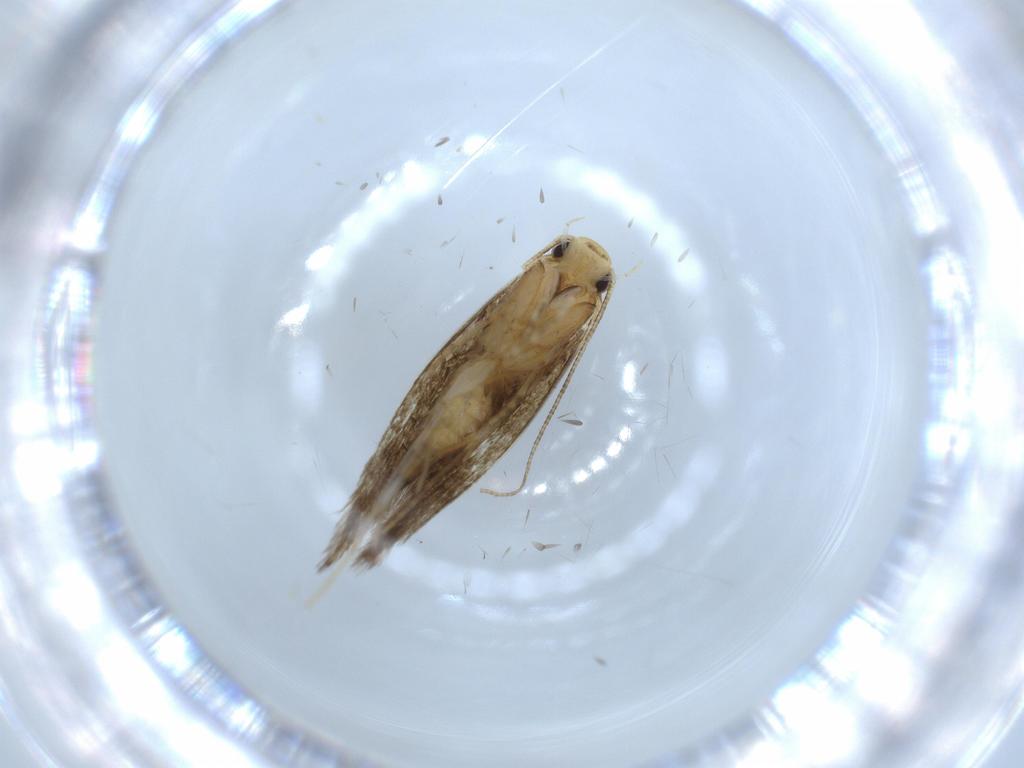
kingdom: Animalia
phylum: Arthropoda
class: Insecta
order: Lepidoptera
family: Tineidae
